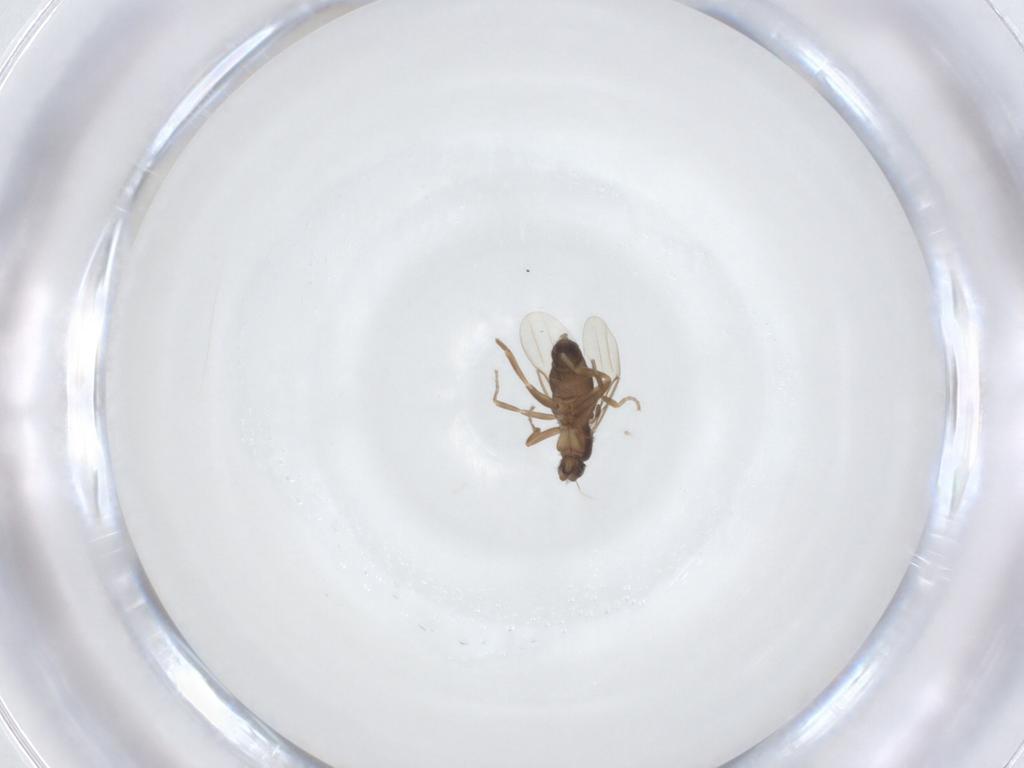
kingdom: Animalia
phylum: Arthropoda
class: Insecta
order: Diptera
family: Phoridae
